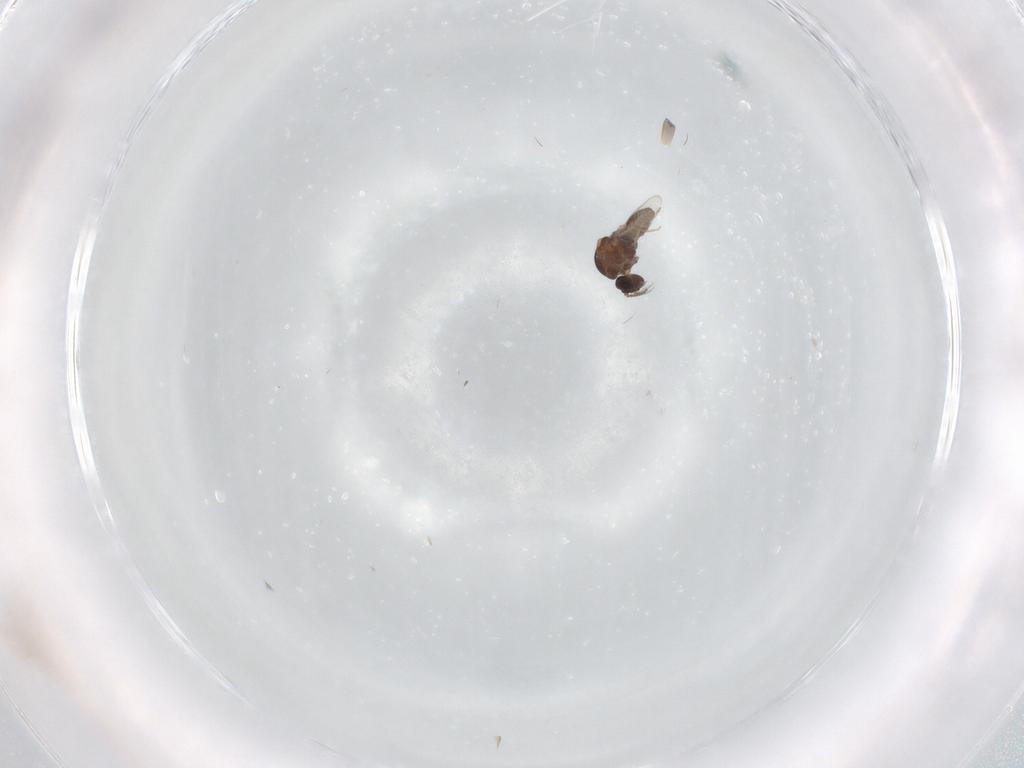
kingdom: Animalia
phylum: Arthropoda
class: Insecta
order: Diptera
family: Ceratopogonidae
